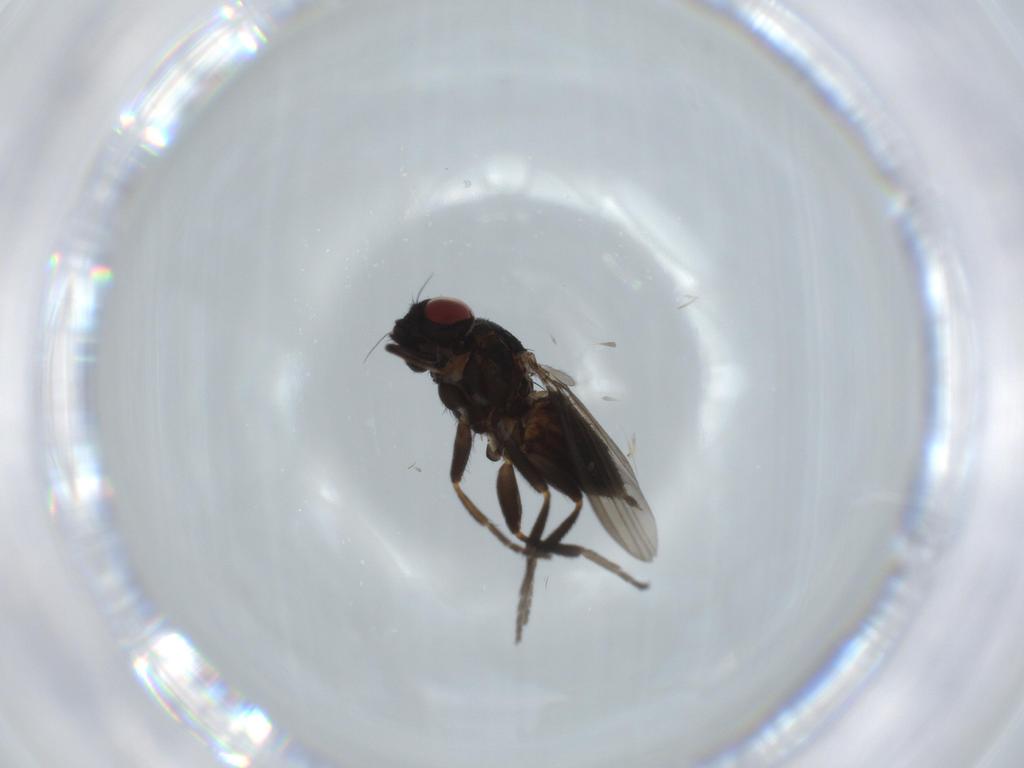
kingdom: Animalia
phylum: Arthropoda
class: Insecta
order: Diptera
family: Milichiidae
